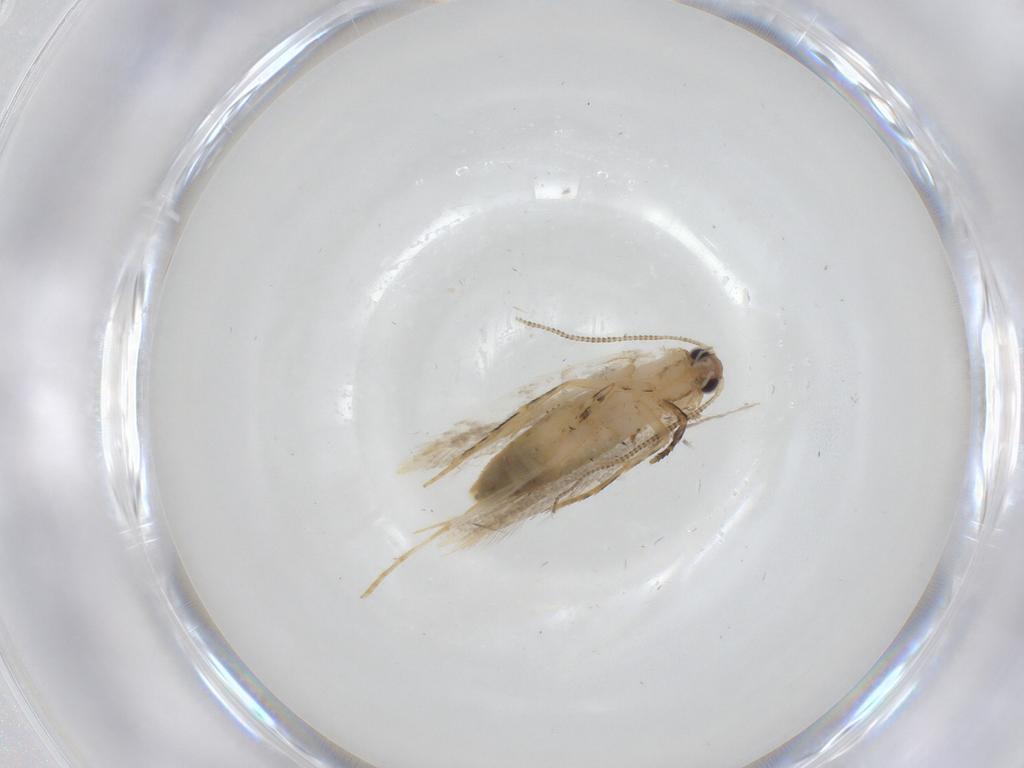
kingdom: Animalia
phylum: Arthropoda
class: Insecta
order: Lepidoptera
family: Tineidae
